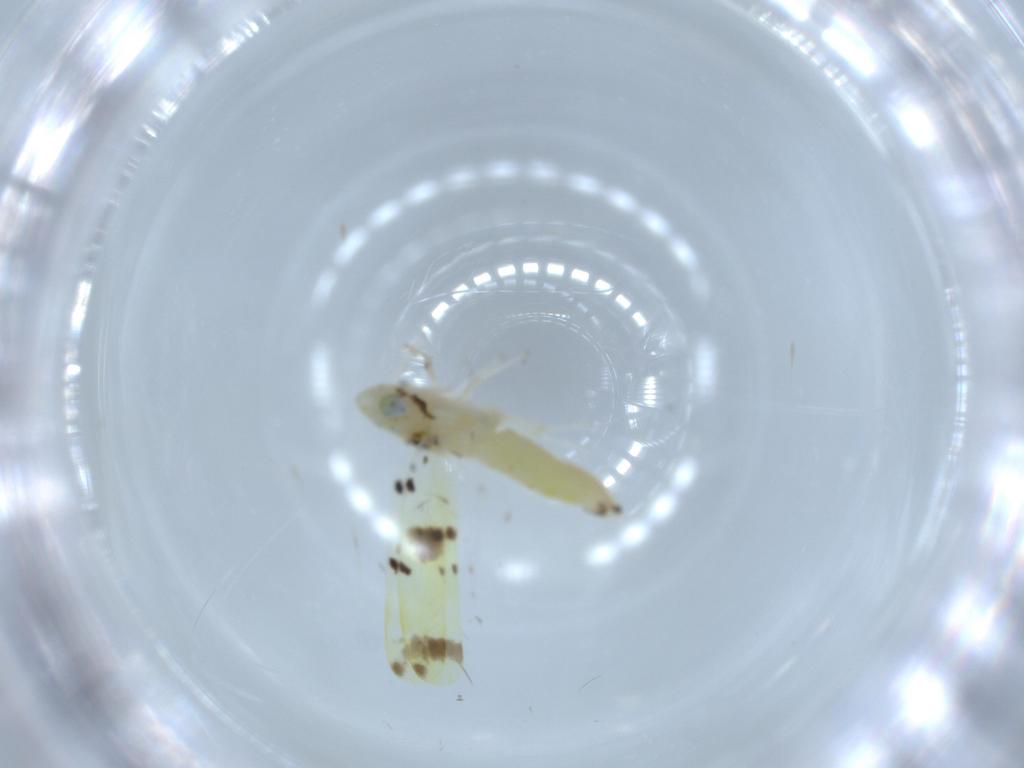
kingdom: Animalia
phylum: Arthropoda
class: Insecta
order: Hemiptera
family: Cicadellidae
